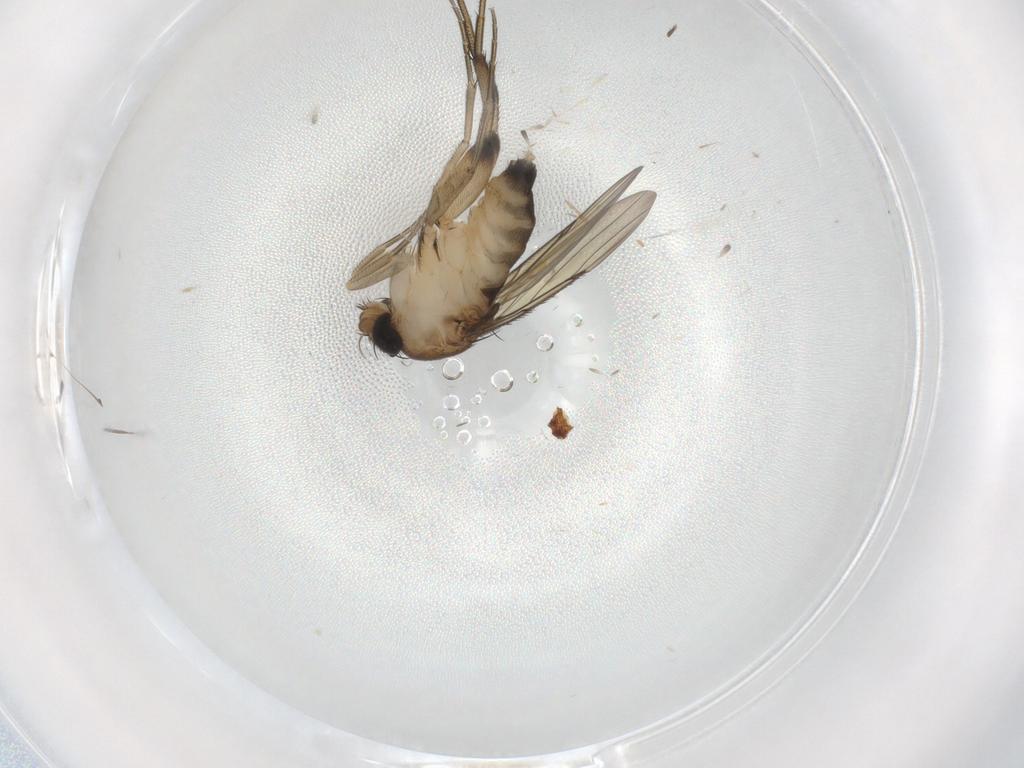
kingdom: Animalia
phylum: Arthropoda
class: Insecta
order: Diptera
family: Phoridae
